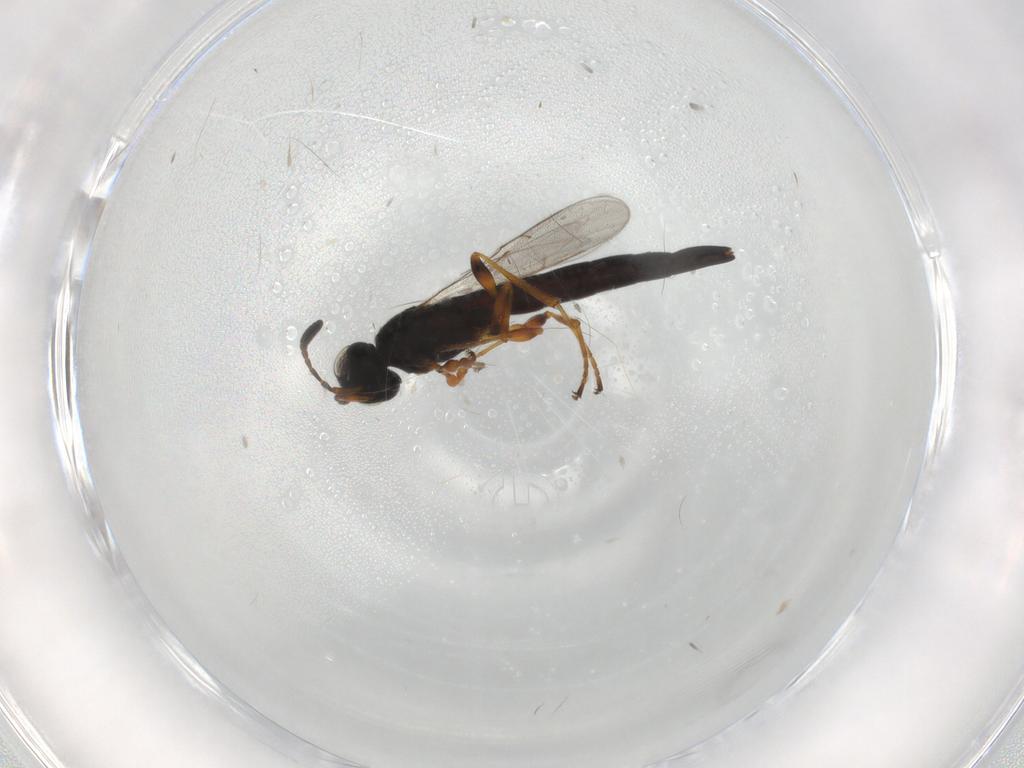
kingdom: Animalia
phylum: Arthropoda
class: Insecta
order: Hymenoptera
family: Scelionidae
